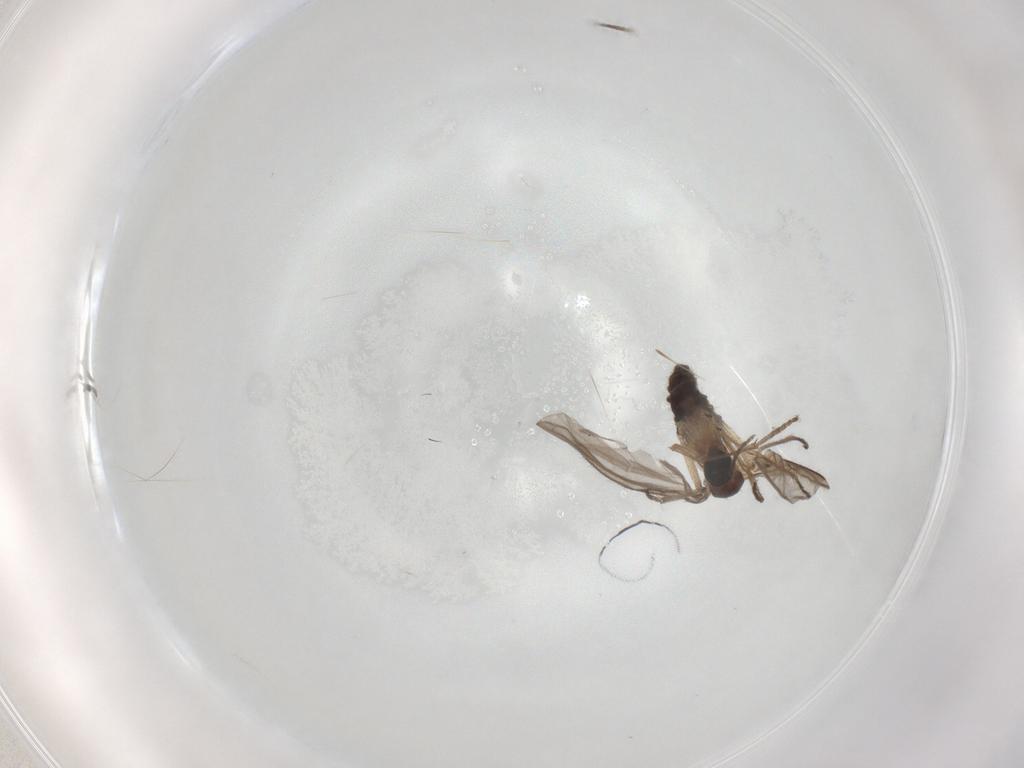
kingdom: Animalia
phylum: Arthropoda
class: Insecta
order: Diptera
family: Sciaridae
